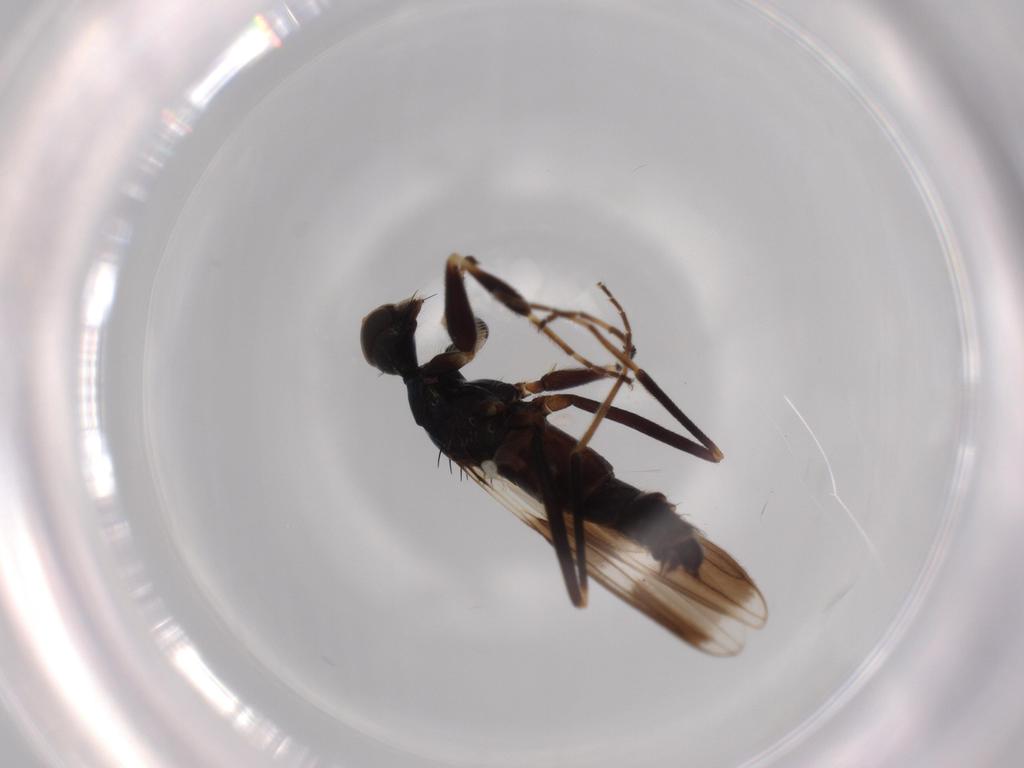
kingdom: Animalia
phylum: Arthropoda
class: Insecta
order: Diptera
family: Hybotidae
